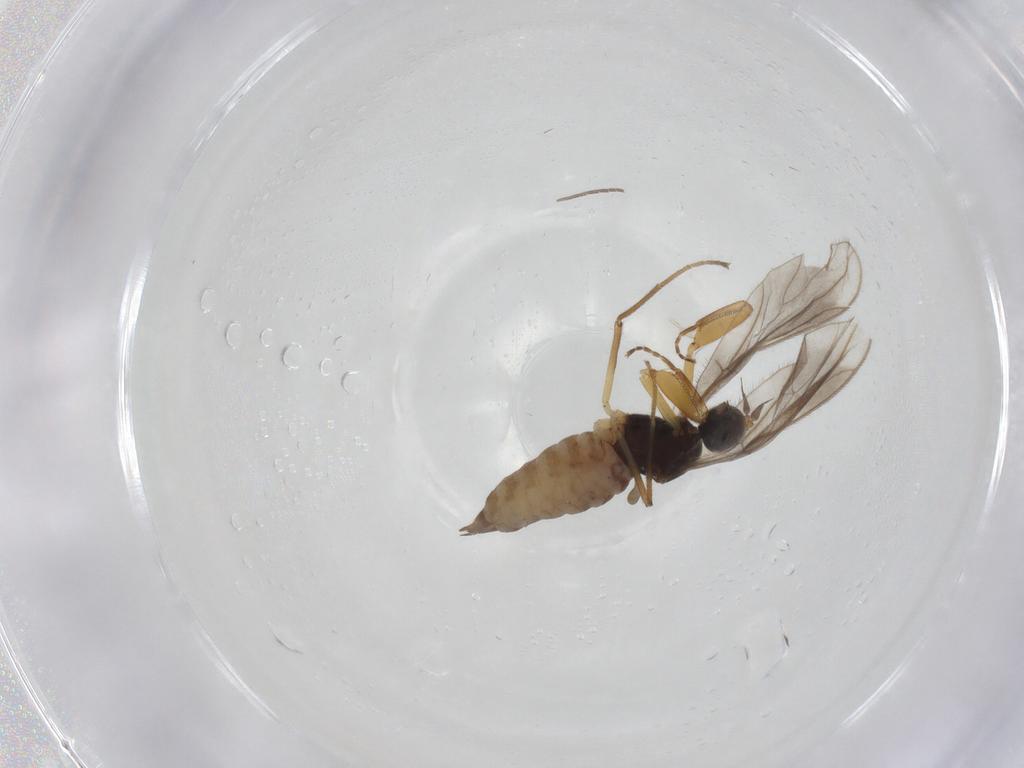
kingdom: Animalia
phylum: Arthropoda
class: Insecta
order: Diptera
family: Empididae
